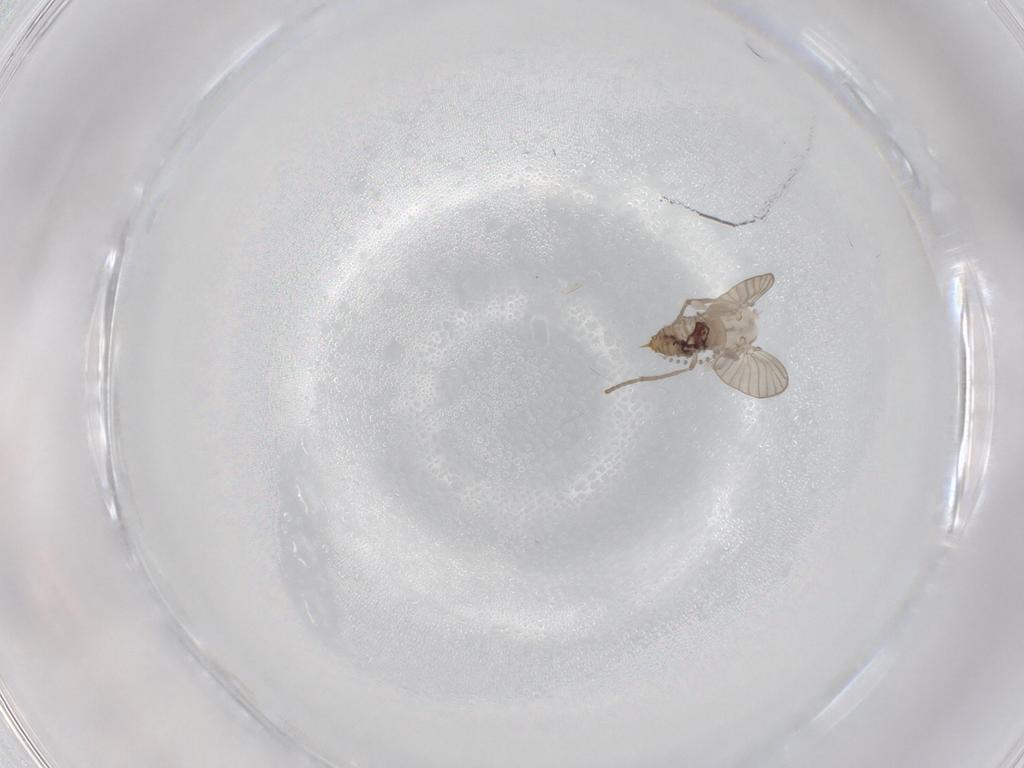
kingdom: Animalia
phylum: Arthropoda
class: Insecta
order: Diptera
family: Psychodidae
